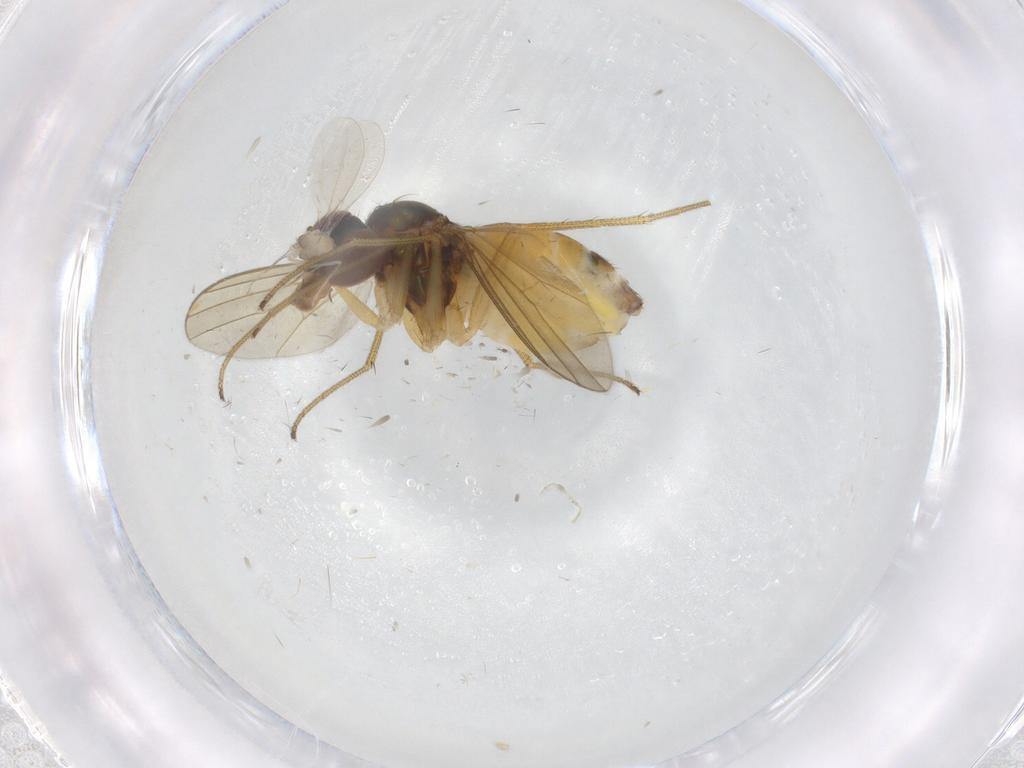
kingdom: Animalia
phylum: Arthropoda
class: Insecta
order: Diptera
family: Dolichopodidae
